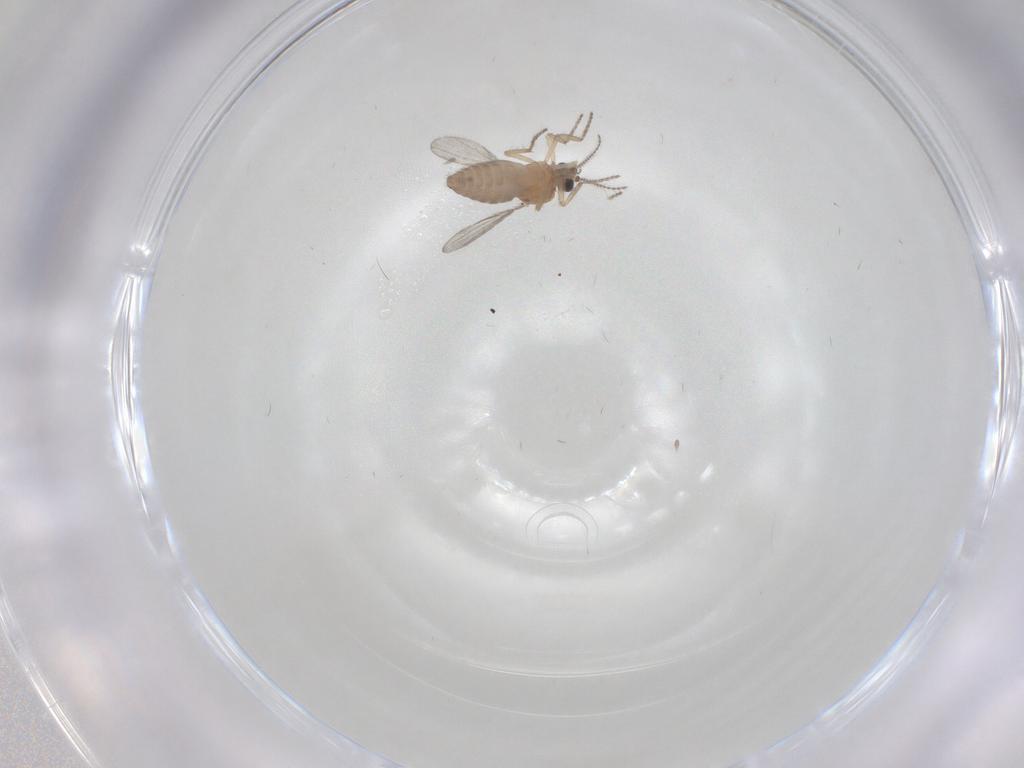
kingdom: Animalia
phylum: Arthropoda
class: Insecta
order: Diptera
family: Ceratopogonidae
